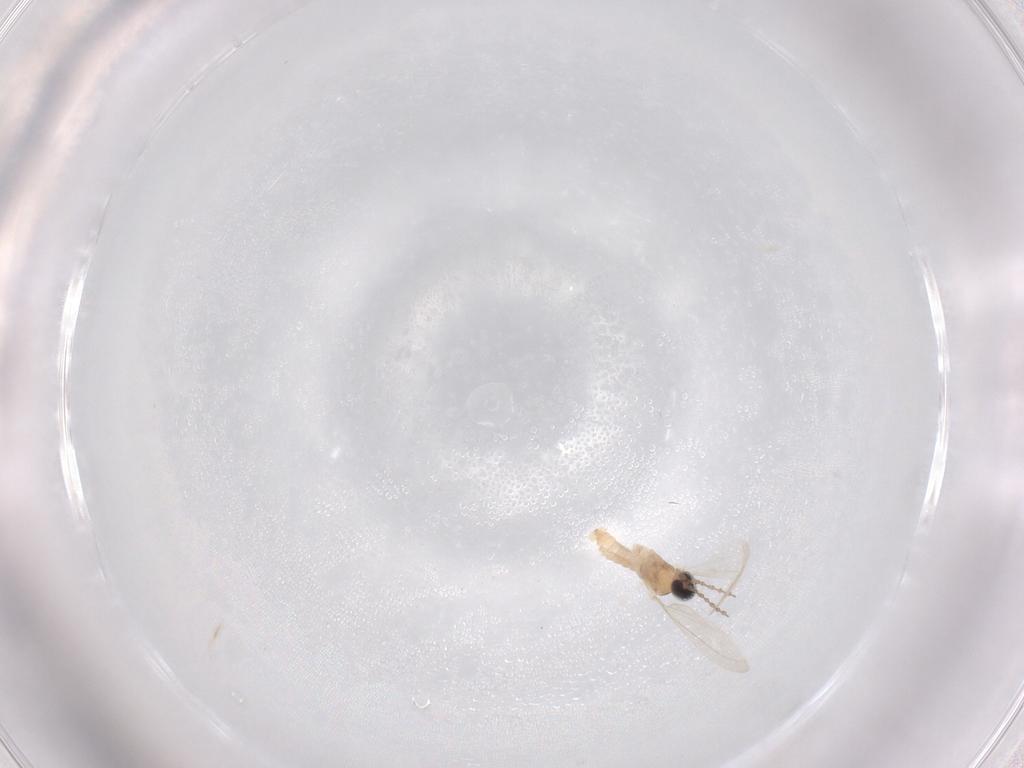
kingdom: Animalia
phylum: Arthropoda
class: Insecta
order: Diptera
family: Cecidomyiidae
